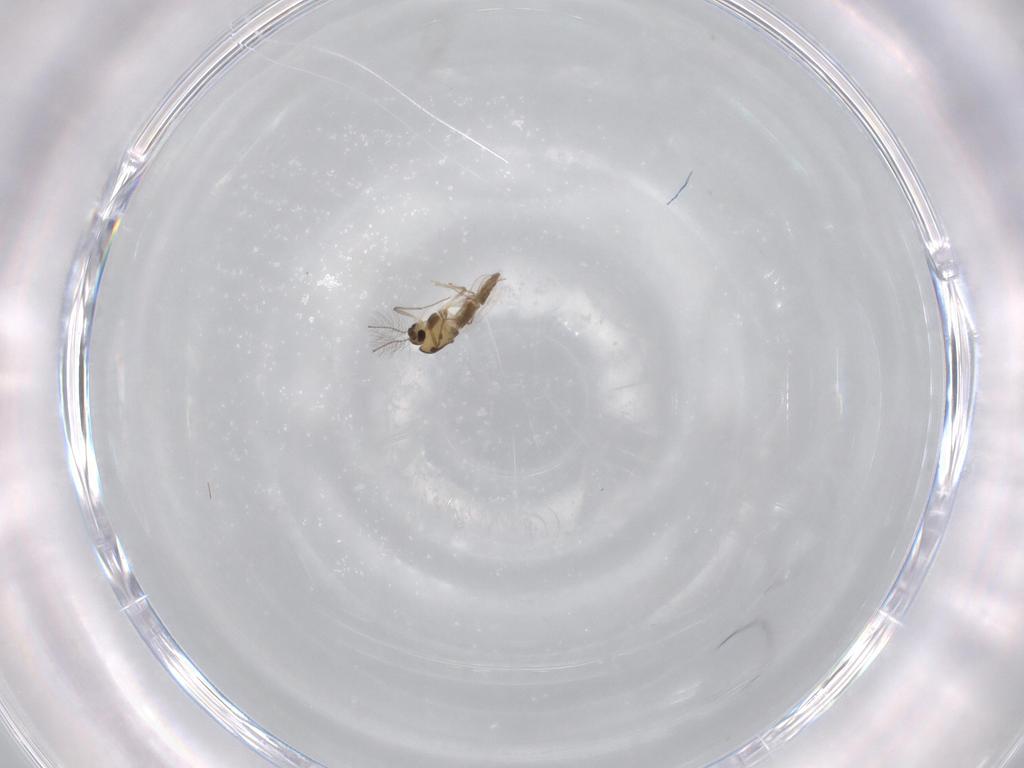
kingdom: Animalia
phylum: Arthropoda
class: Insecta
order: Diptera
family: Chironomidae
